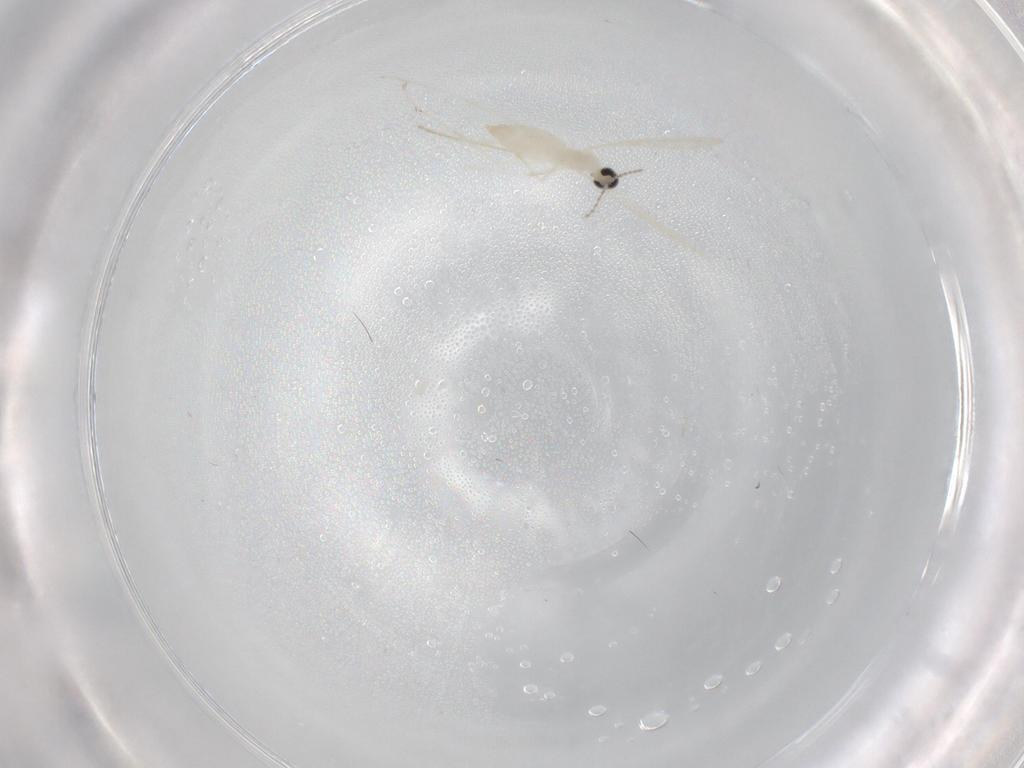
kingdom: Animalia
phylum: Arthropoda
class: Insecta
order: Diptera
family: Cecidomyiidae
